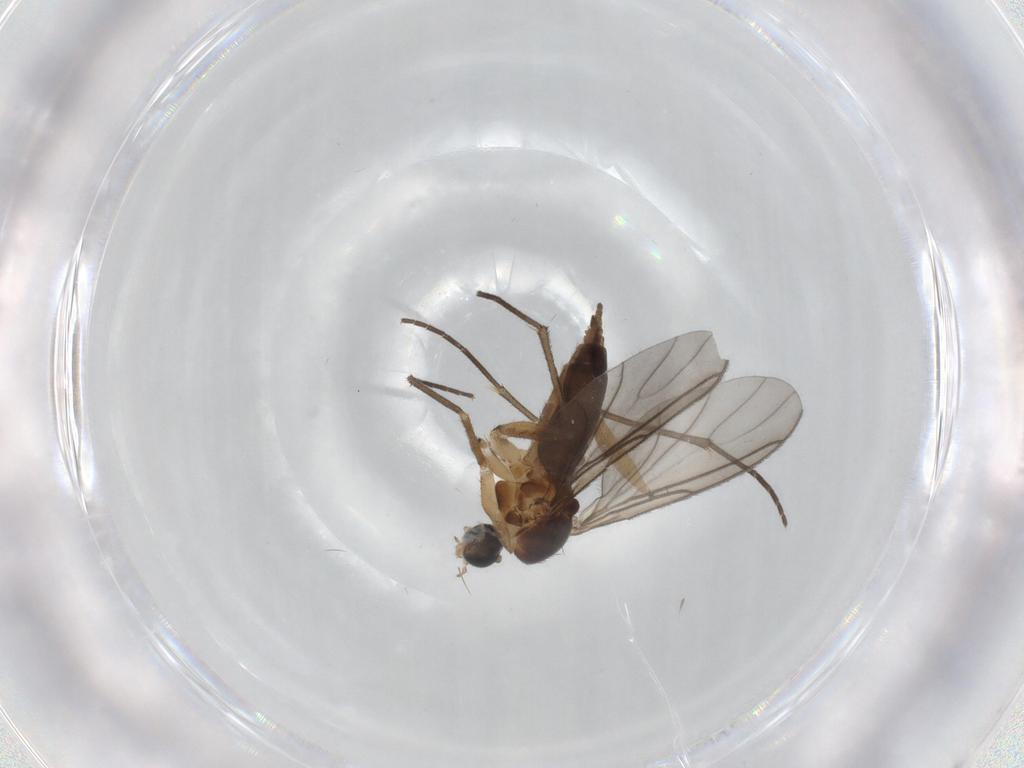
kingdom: Animalia
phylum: Arthropoda
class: Insecta
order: Diptera
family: Sciaridae
